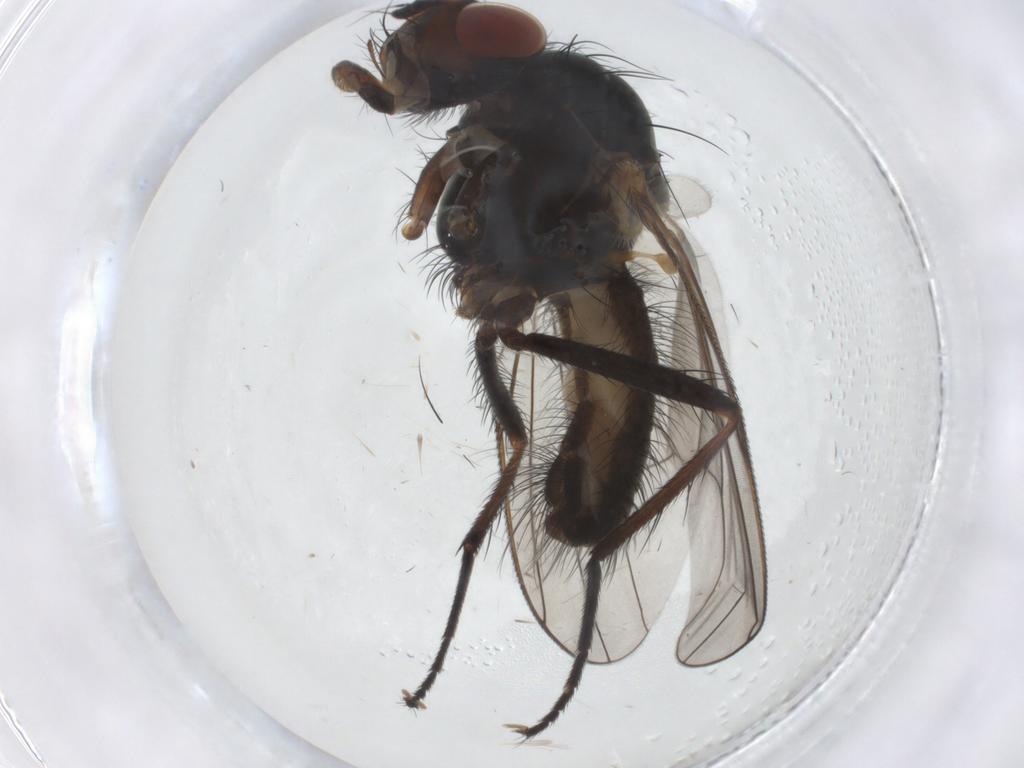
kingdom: Animalia
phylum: Arthropoda
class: Insecta
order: Diptera
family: Anthomyiidae
